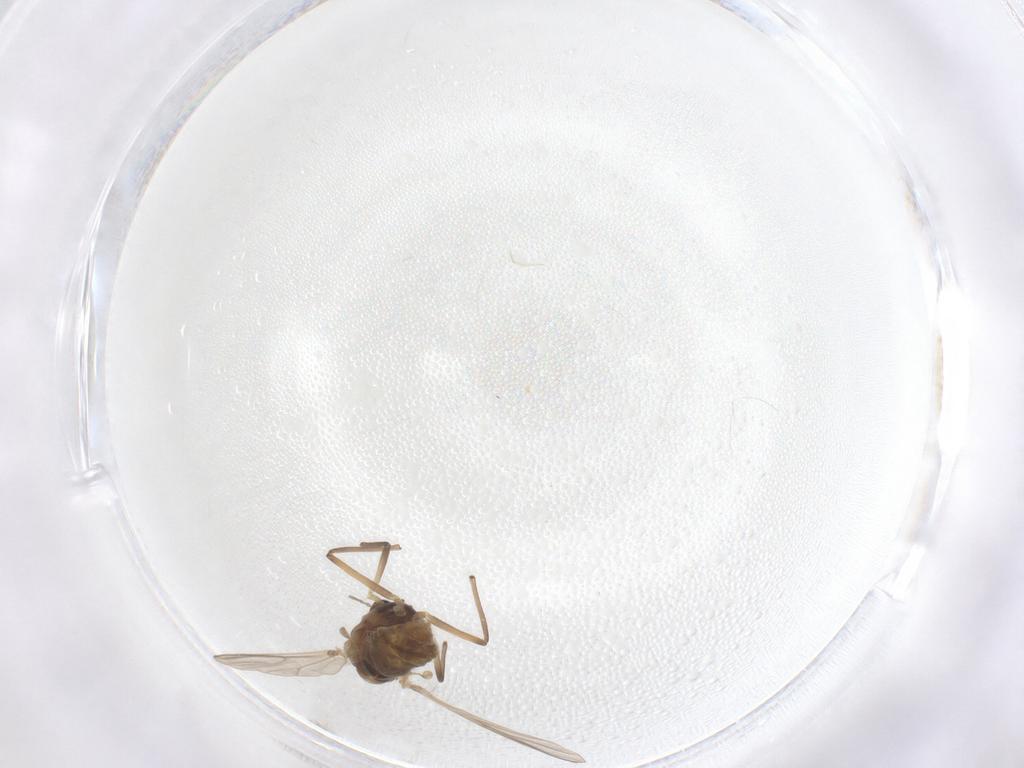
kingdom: Animalia
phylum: Arthropoda
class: Insecta
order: Diptera
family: Chironomidae
